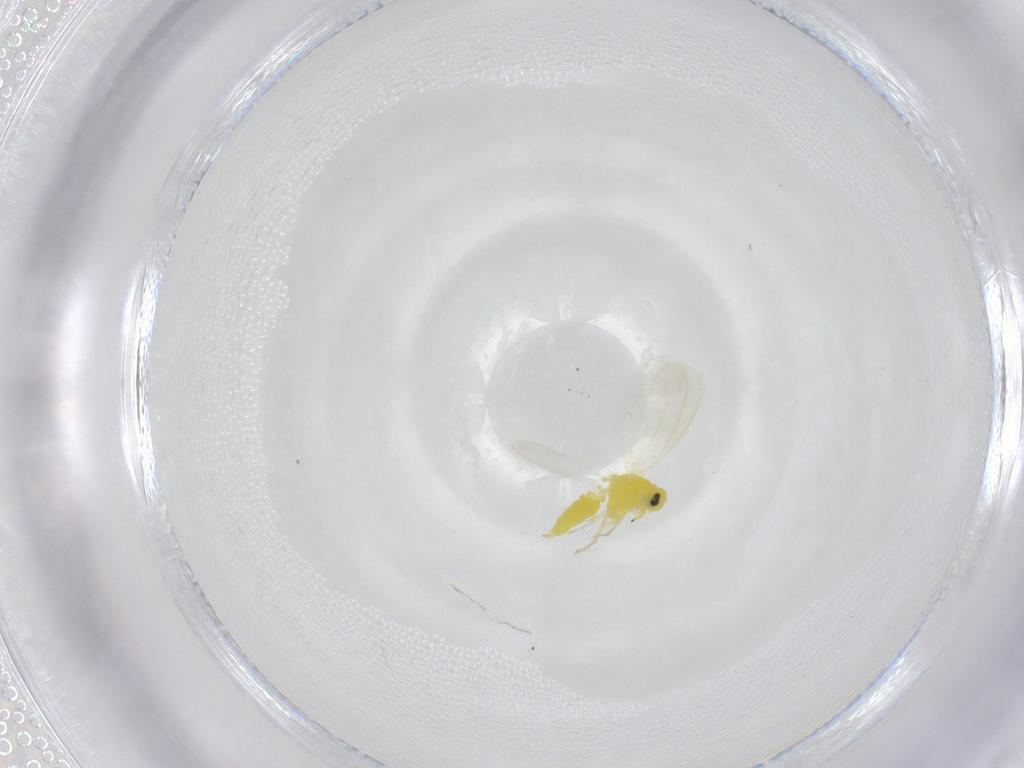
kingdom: Animalia
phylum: Arthropoda
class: Insecta
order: Hemiptera
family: Aleyrodidae
